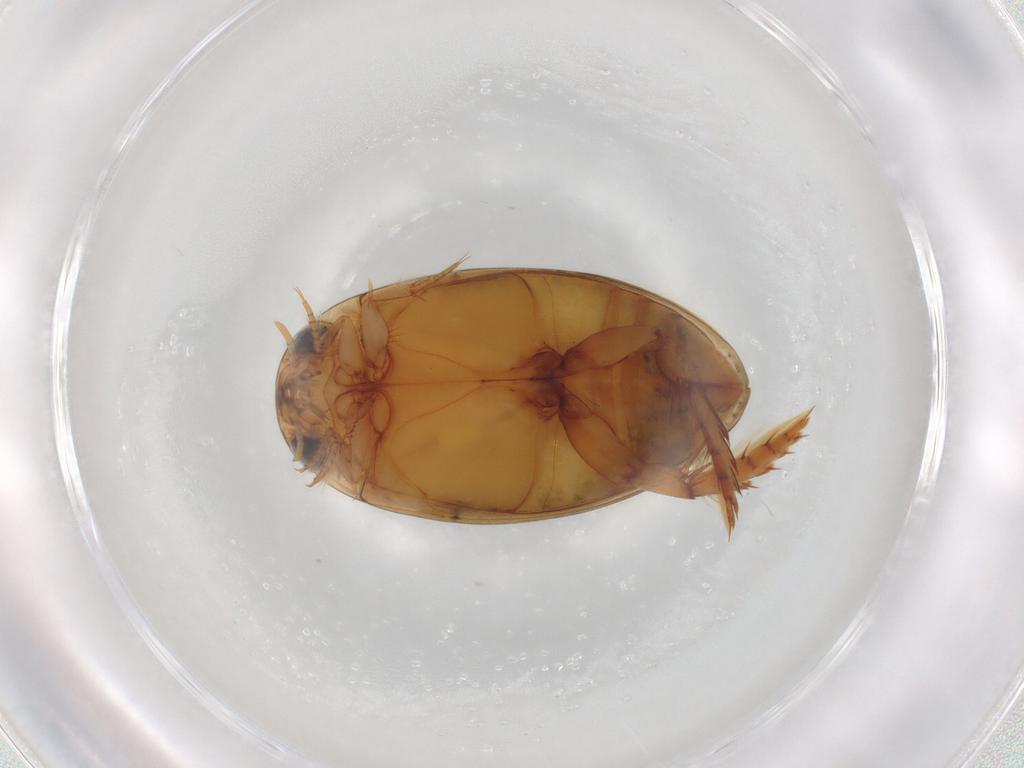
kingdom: Animalia
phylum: Arthropoda
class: Insecta
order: Coleoptera
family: Dytiscidae
